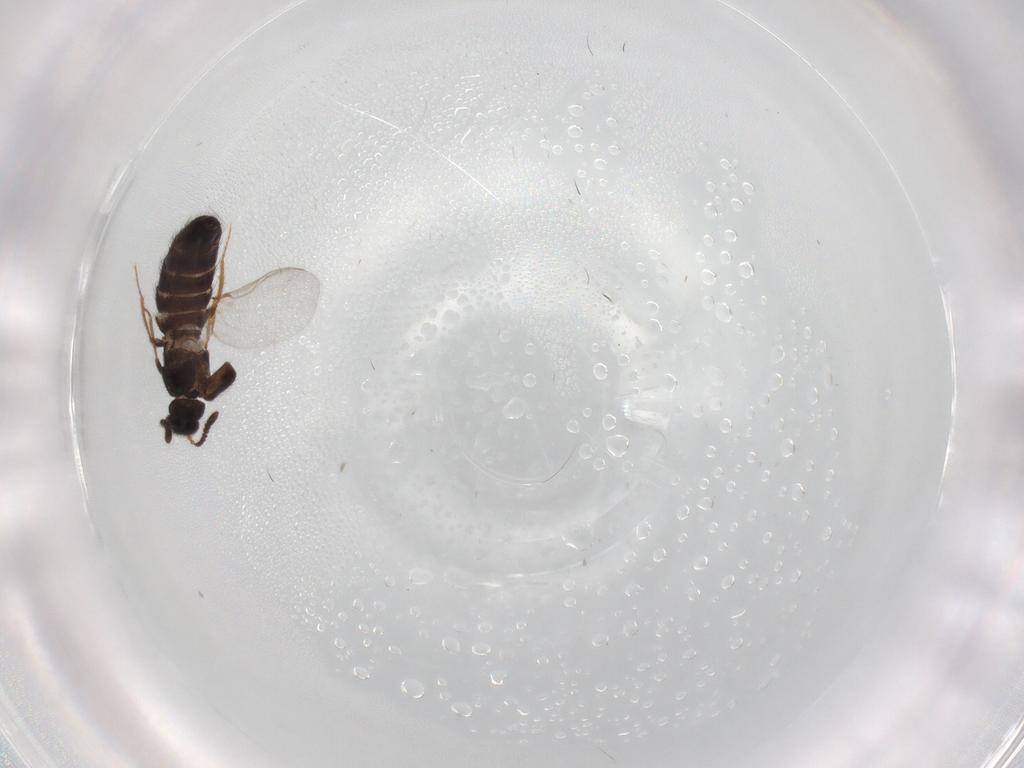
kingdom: Animalia
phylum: Arthropoda
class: Insecta
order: Coleoptera
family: Staphylinidae
